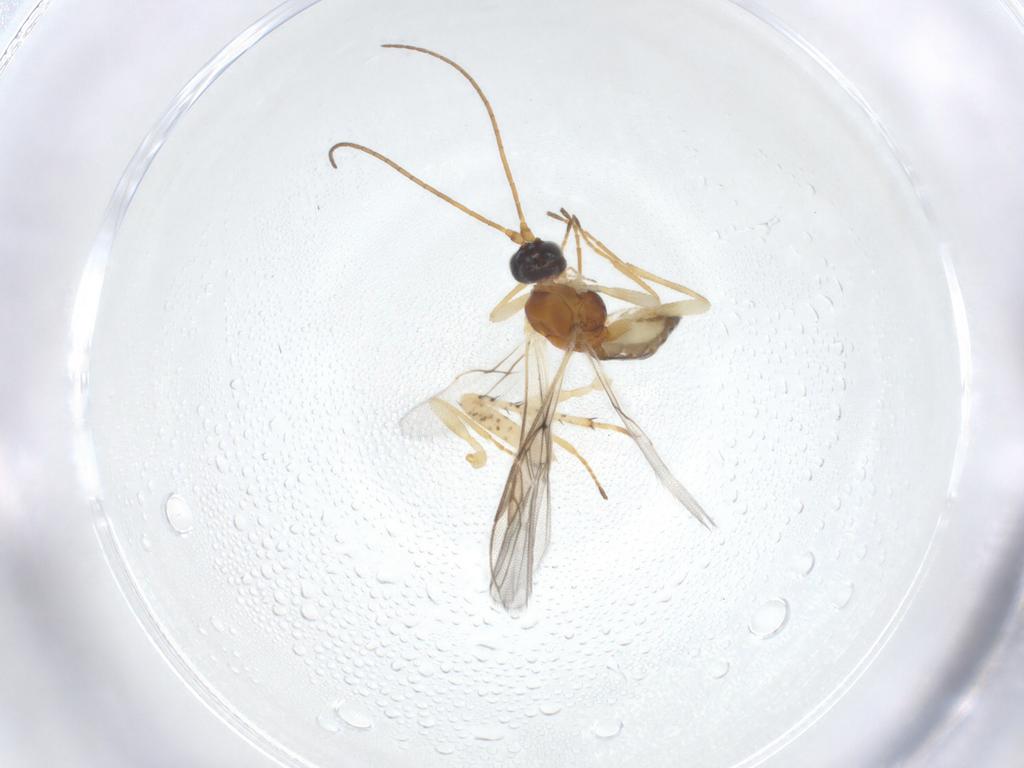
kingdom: Animalia
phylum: Arthropoda
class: Insecta
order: Hymenoptera
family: Braconidae
